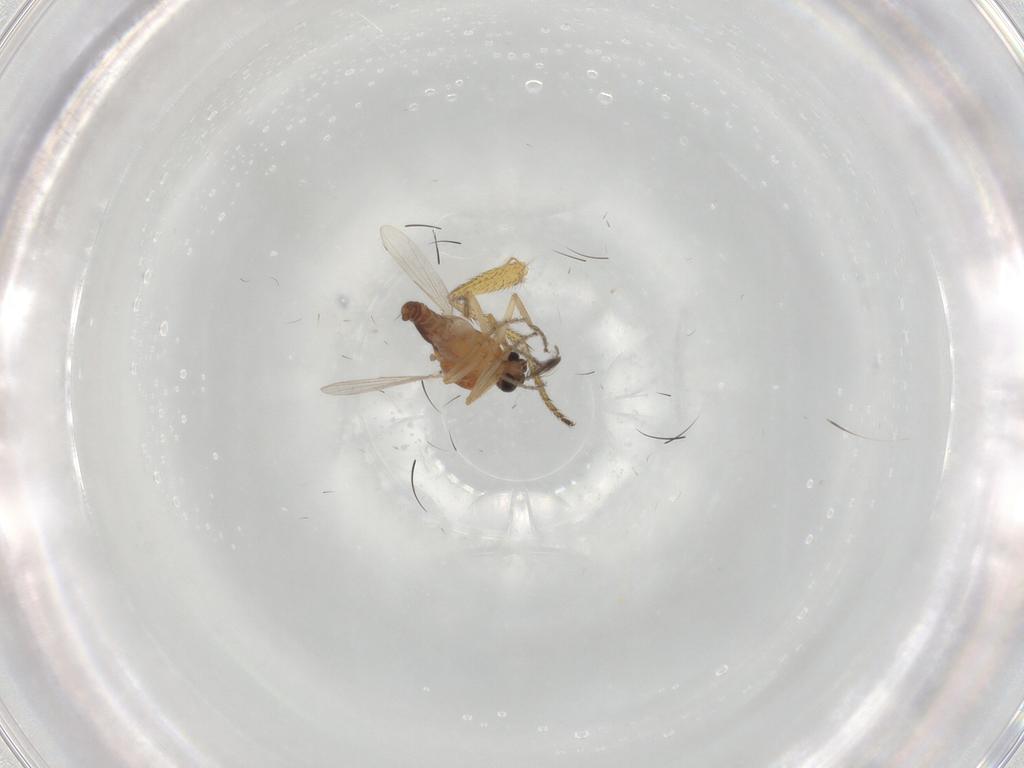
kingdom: Animalia
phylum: Arthropoda
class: Insecta
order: Diptera
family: Ceratopogonidae
